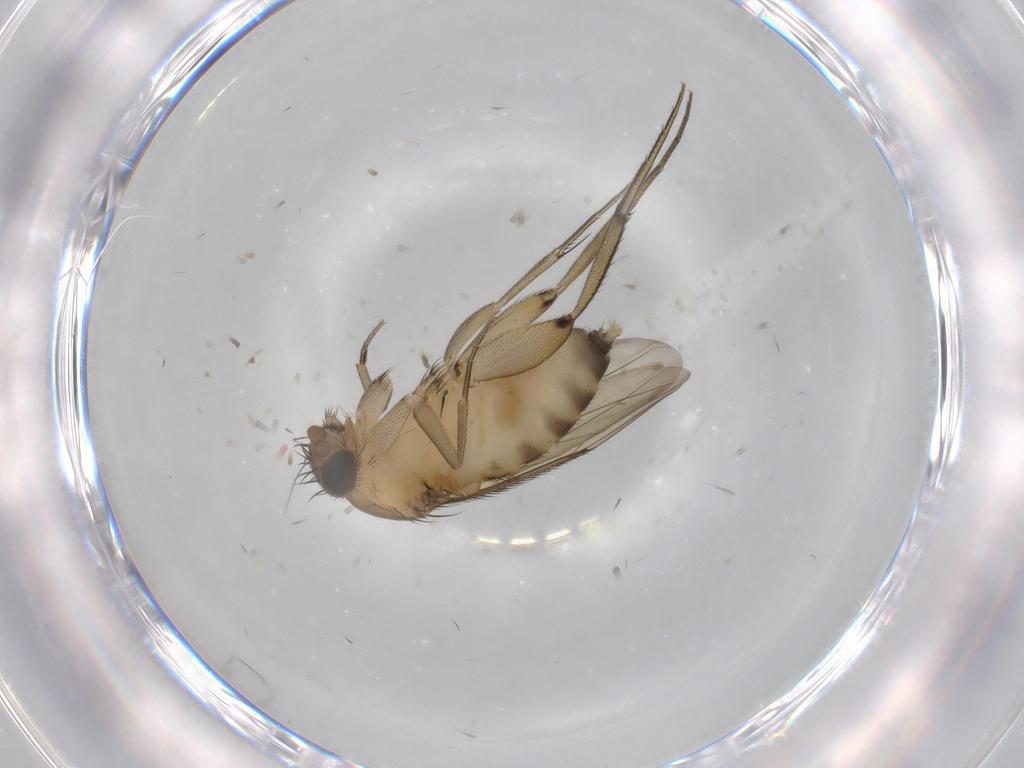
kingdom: Animalia
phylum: Arthropoda
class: Insecta
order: Diptera
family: Phoridae
